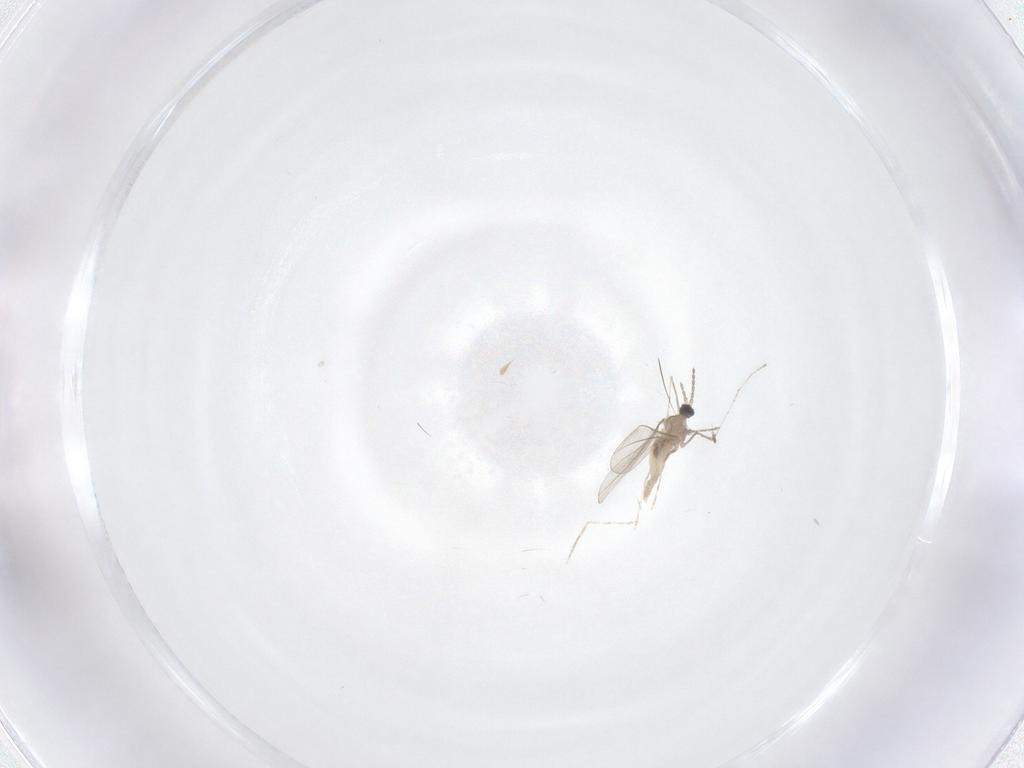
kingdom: Animalia
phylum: Arthropoda
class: Insecta
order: Diptera
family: Cecidomyiidae
